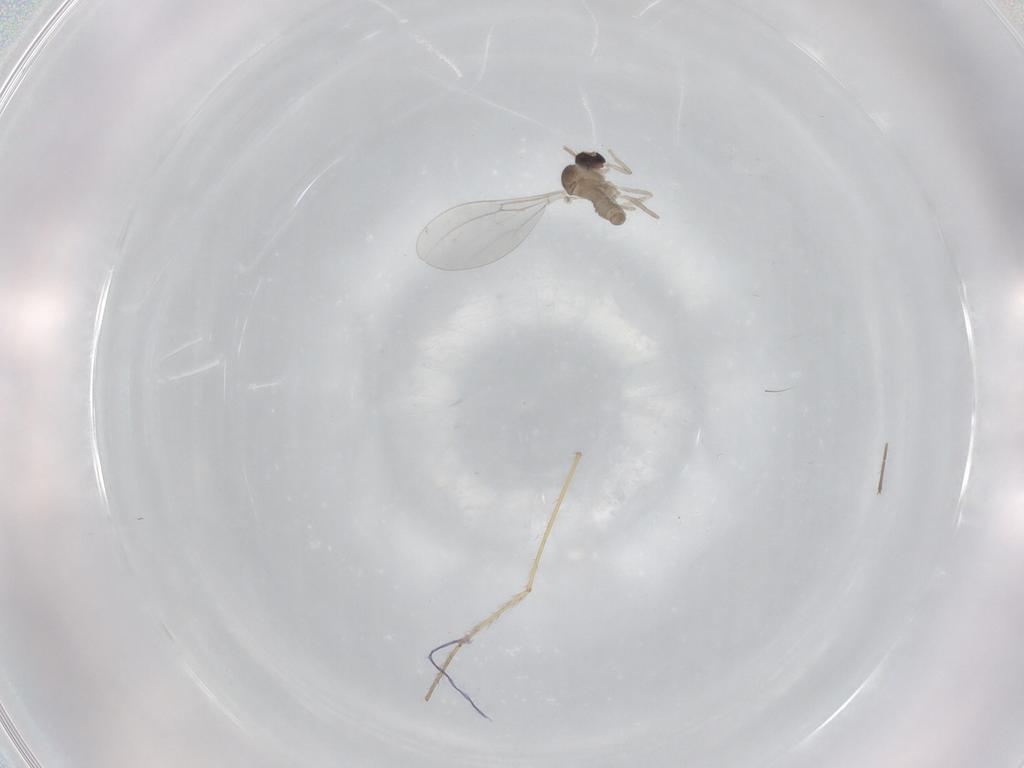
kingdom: Animalia
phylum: Arthropoda
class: Insecta
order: Diptera
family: Cecidomyiidae
